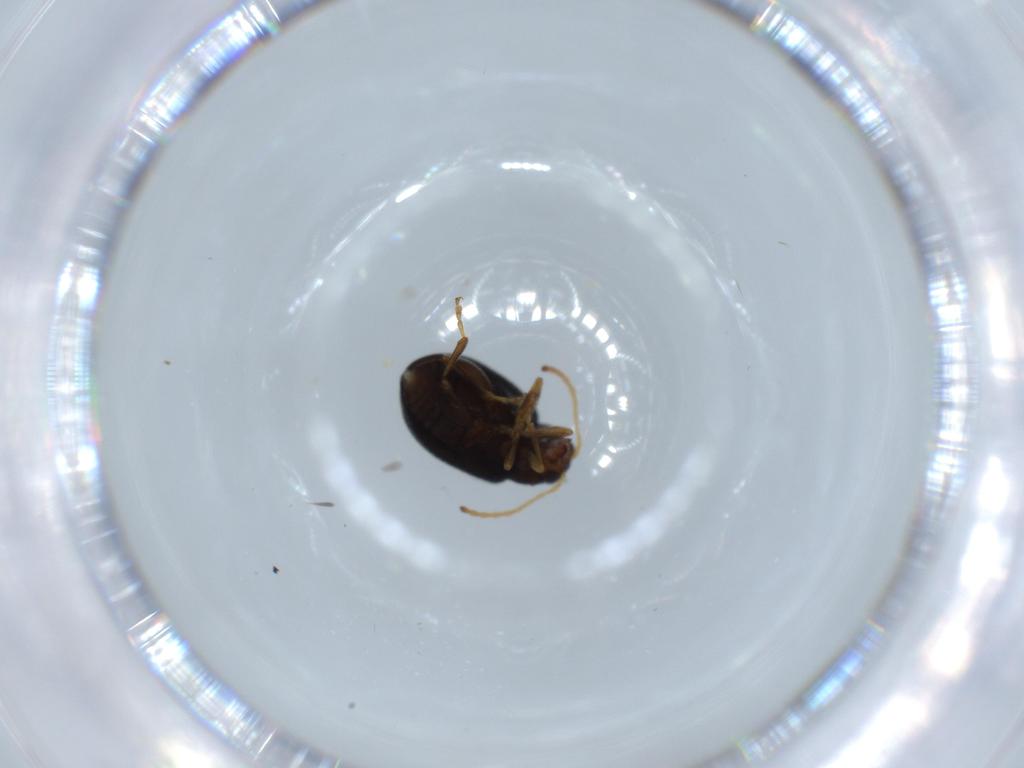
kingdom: Animalia
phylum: Arthropoda
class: Insecta
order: Coleoptera
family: Chrysomelidae
